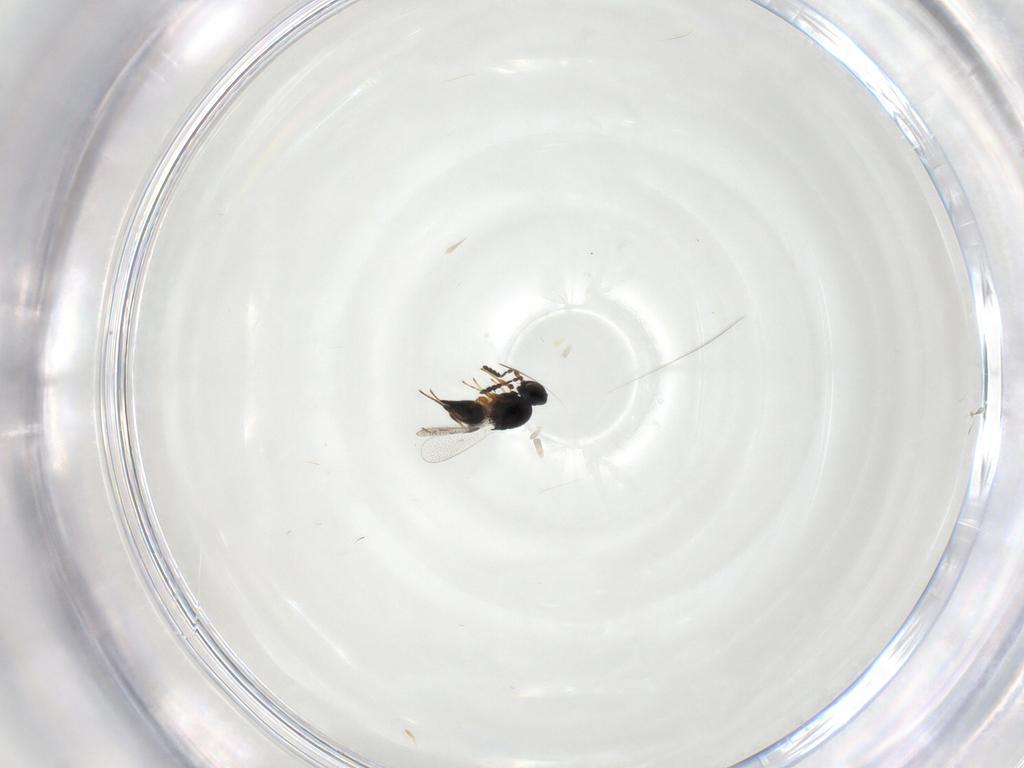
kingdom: Animalia
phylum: Arthropoda
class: Insecta
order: Hymenoptera
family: Platygastridae
